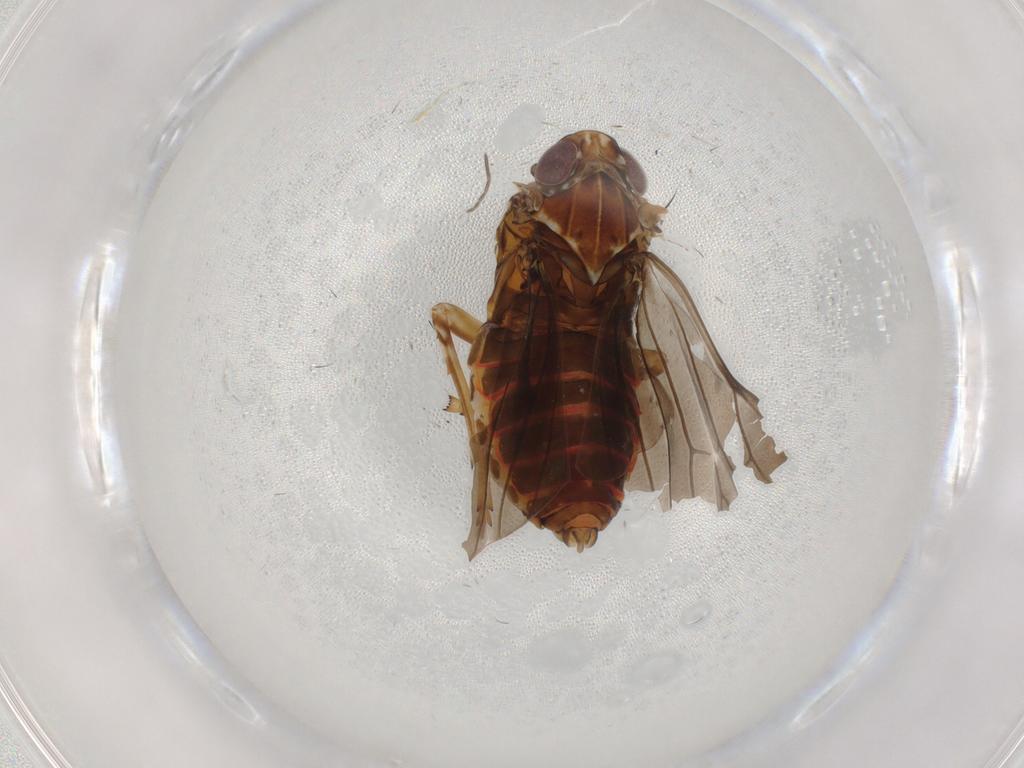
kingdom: Animalia
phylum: Arthropoda
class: Insecta
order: Hemiptera
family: Achilidae
